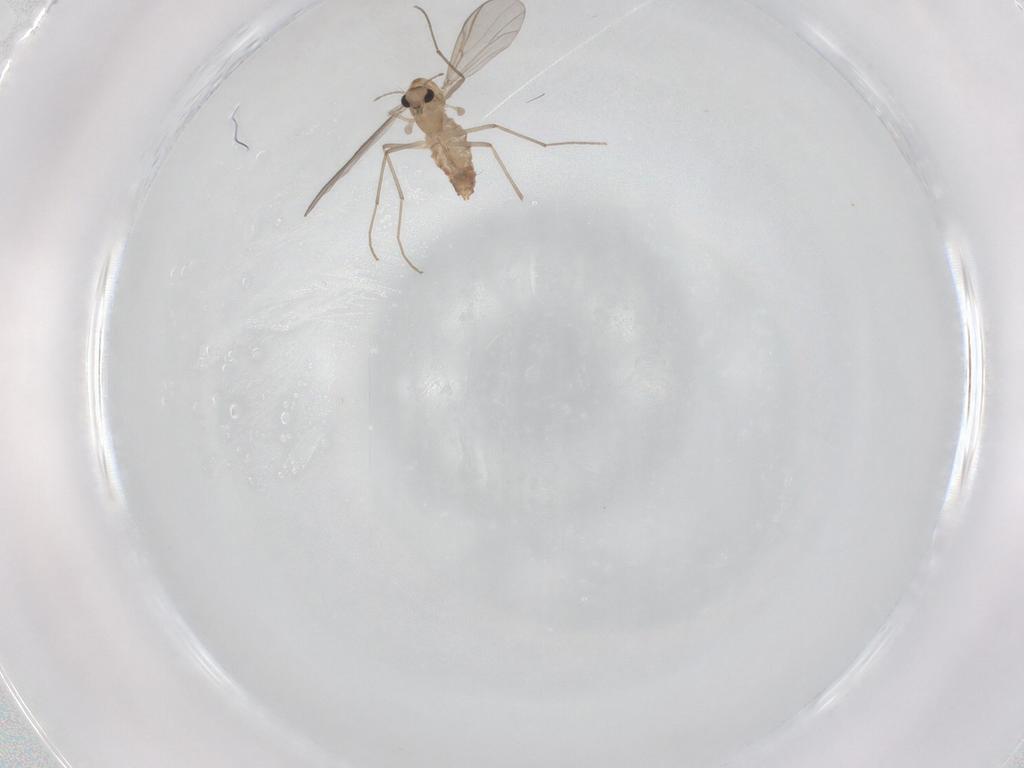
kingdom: Animalia
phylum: Arthropoda
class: Insecta
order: Diptera
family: Chironomidae
